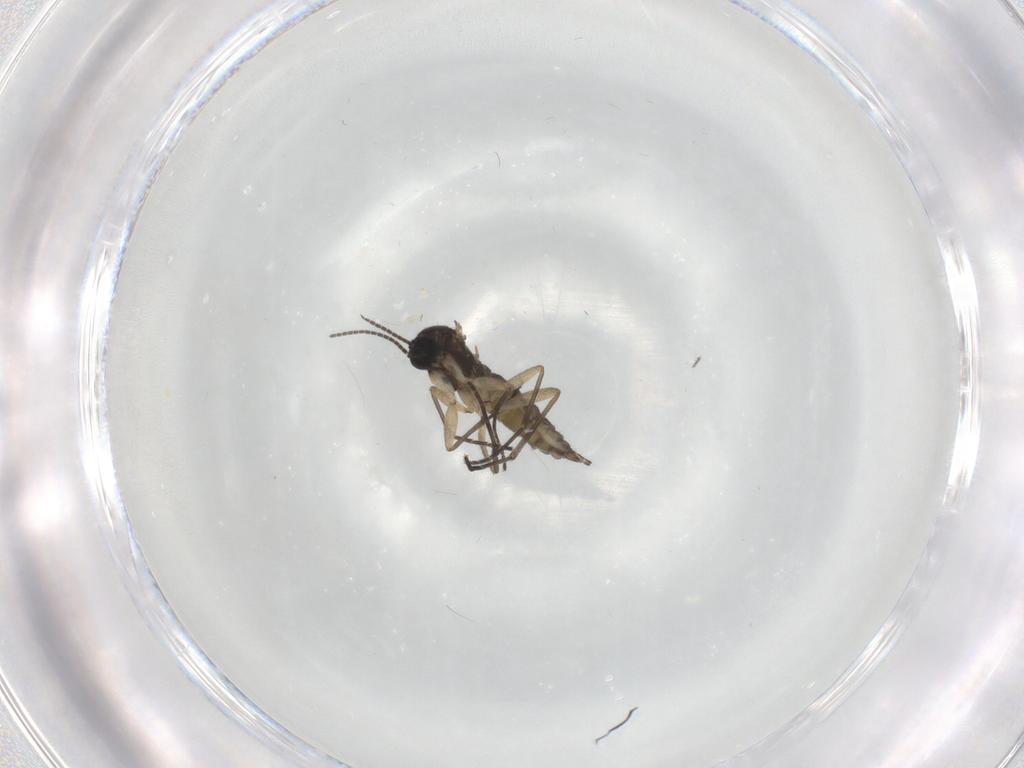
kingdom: Animalia
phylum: Arthropoda
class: Insecta
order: Diptera
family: Sciaridae
